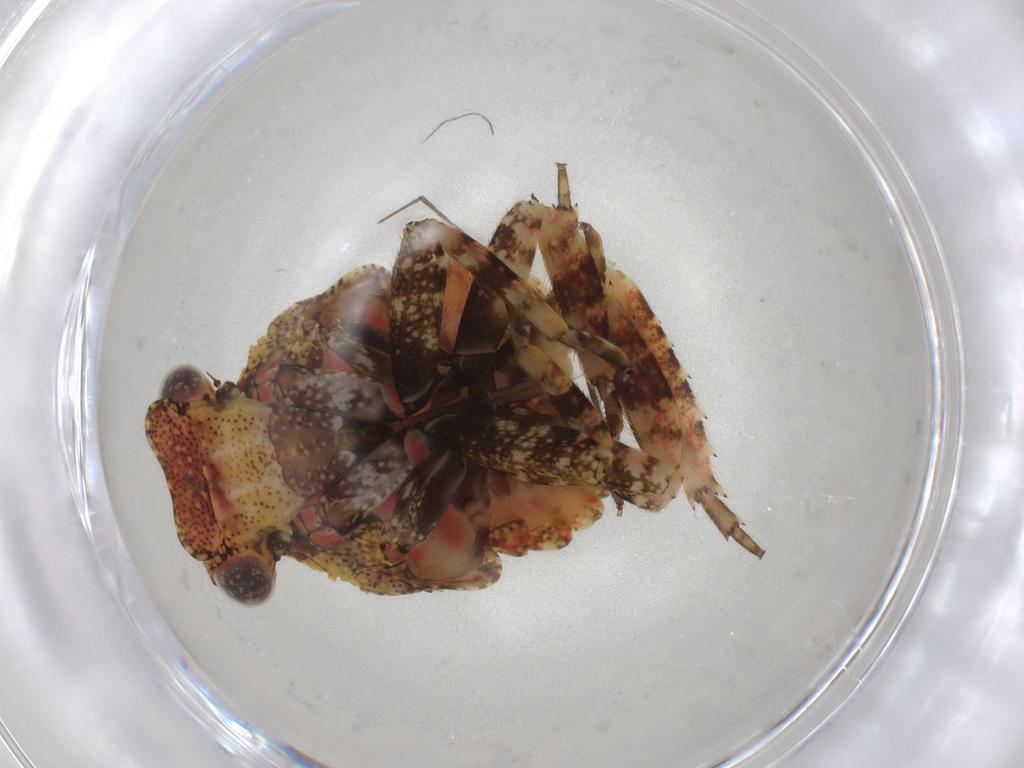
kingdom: Animalia
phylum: Arthropoda
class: Insecta
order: Hemiptera
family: Fulgoridae
